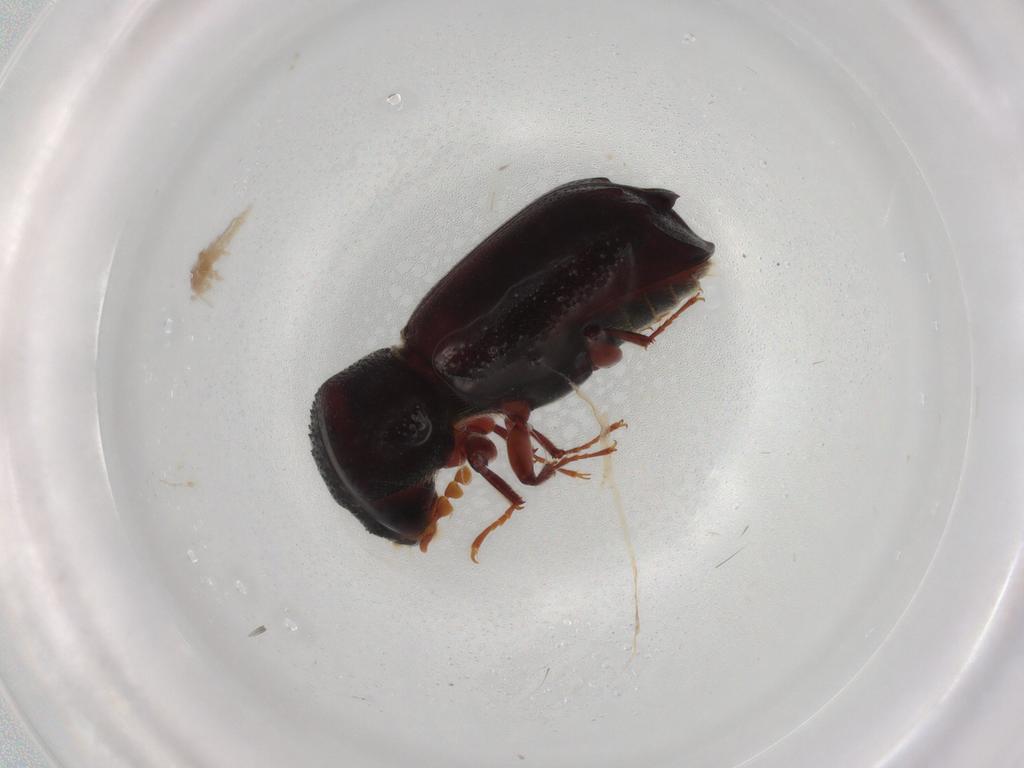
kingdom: Animalia
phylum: Arthropoda
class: Insecta
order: Coleoptera
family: Bostrichidae
